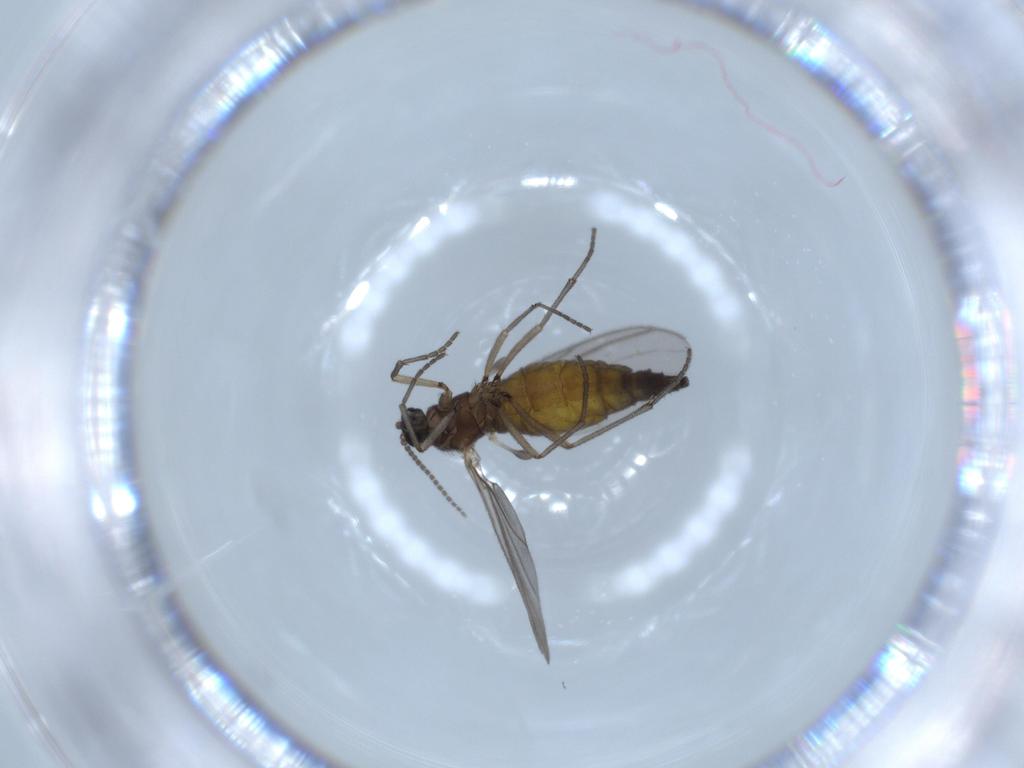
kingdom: Animalia
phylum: Arthropoda
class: Insecta
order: Diptera
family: Sciaridae
